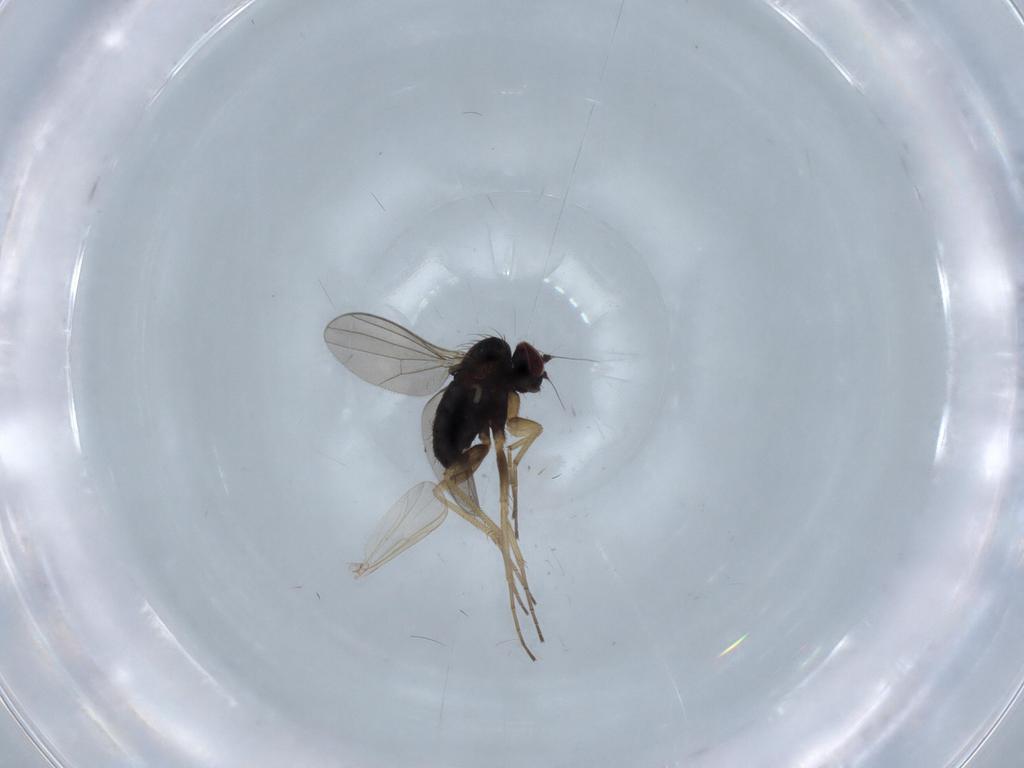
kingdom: Animalia
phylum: Arthropoda
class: Insecta
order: Diptera
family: Dolichopodidae
